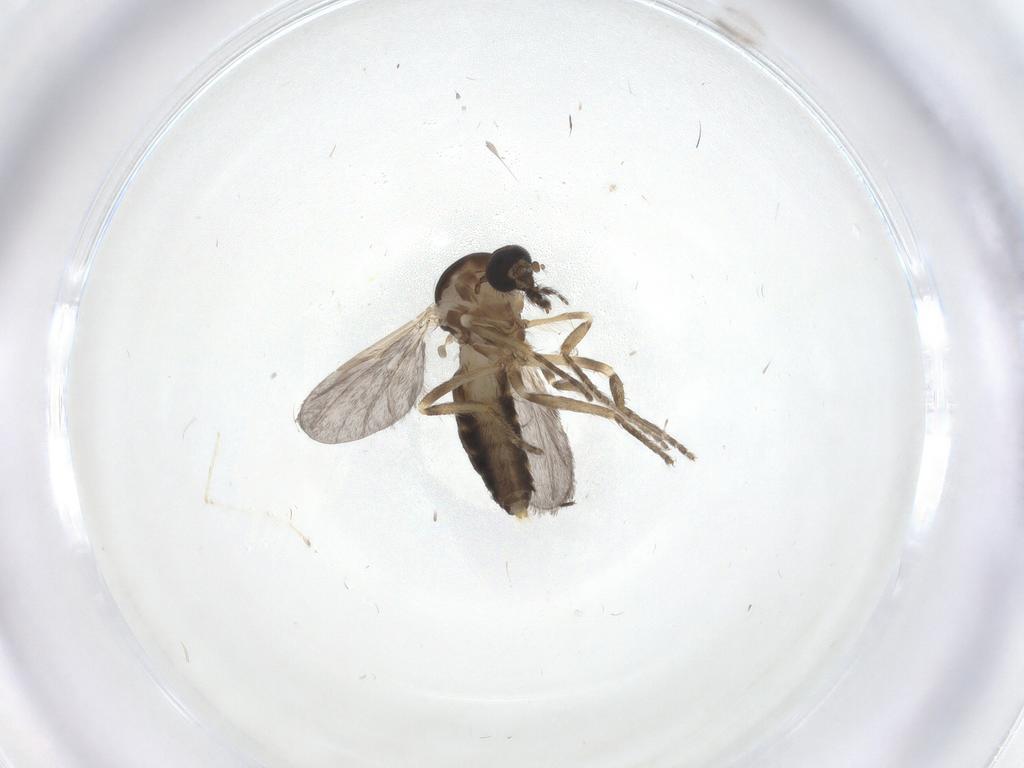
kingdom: Animalia
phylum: Arthropoda
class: Insecta
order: Diptera
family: Ceratopogonidae
